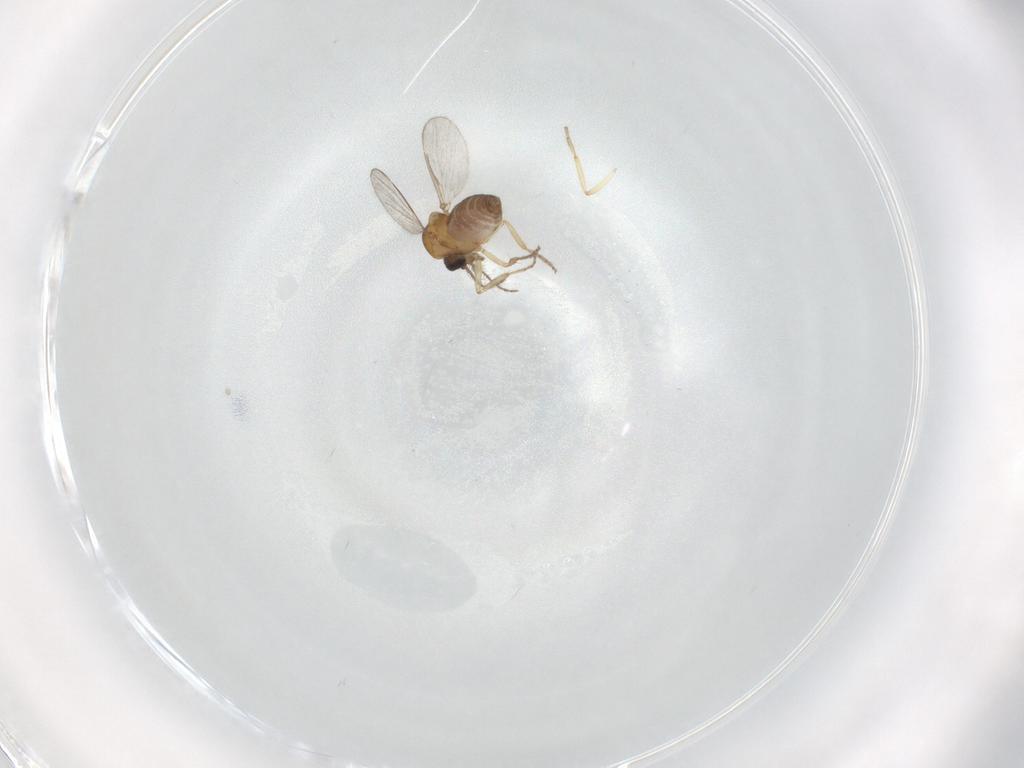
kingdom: Animalia
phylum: Arthropoda
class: Insecta
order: Diptera
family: Ceratopogonidae
